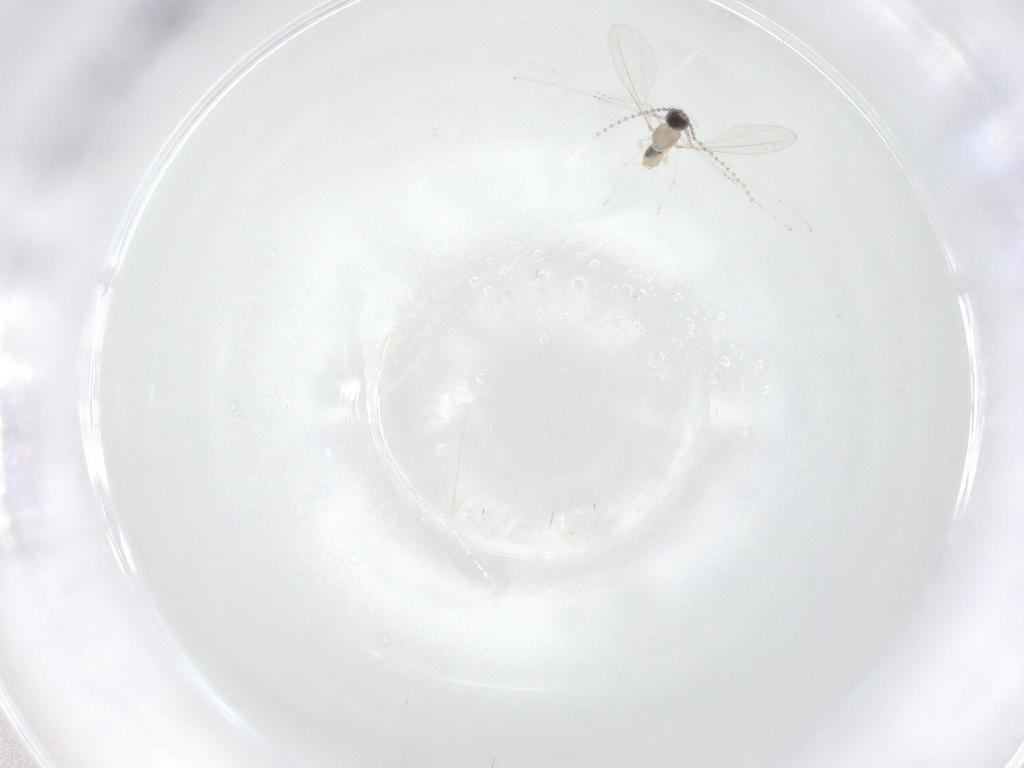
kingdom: Animalia
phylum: Arthropoda
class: Insecta
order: Diptera
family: Cecidomyiidae
